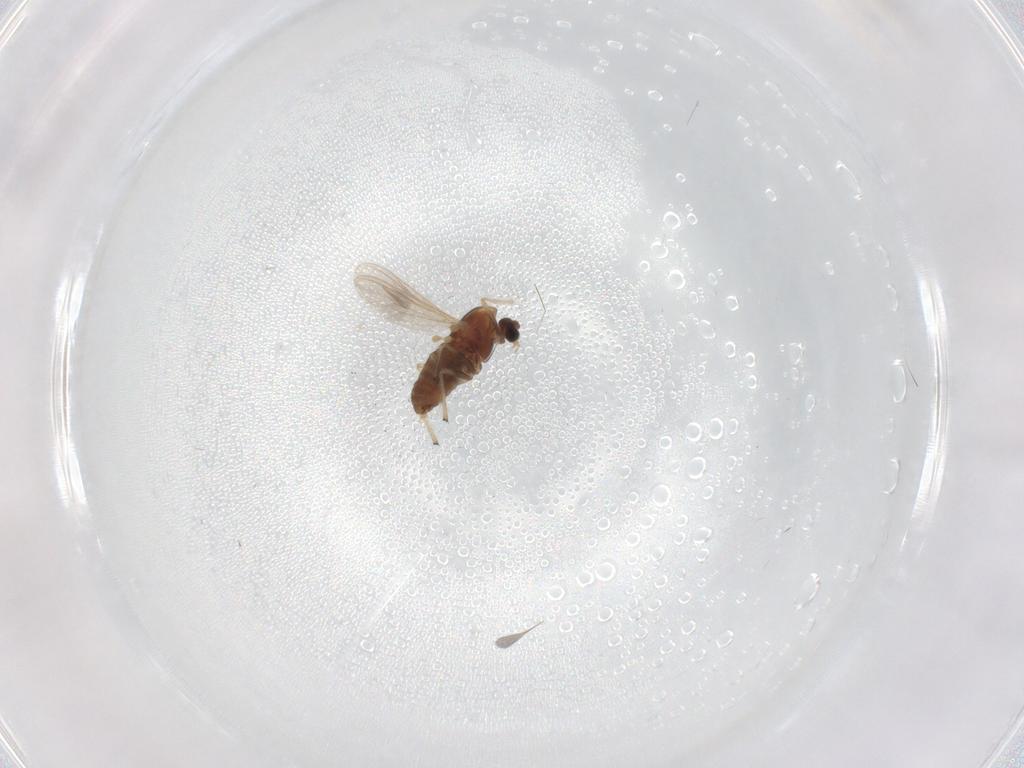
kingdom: Animalia
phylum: Arthropoda
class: Insecta
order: Diptera
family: Chironomidae
